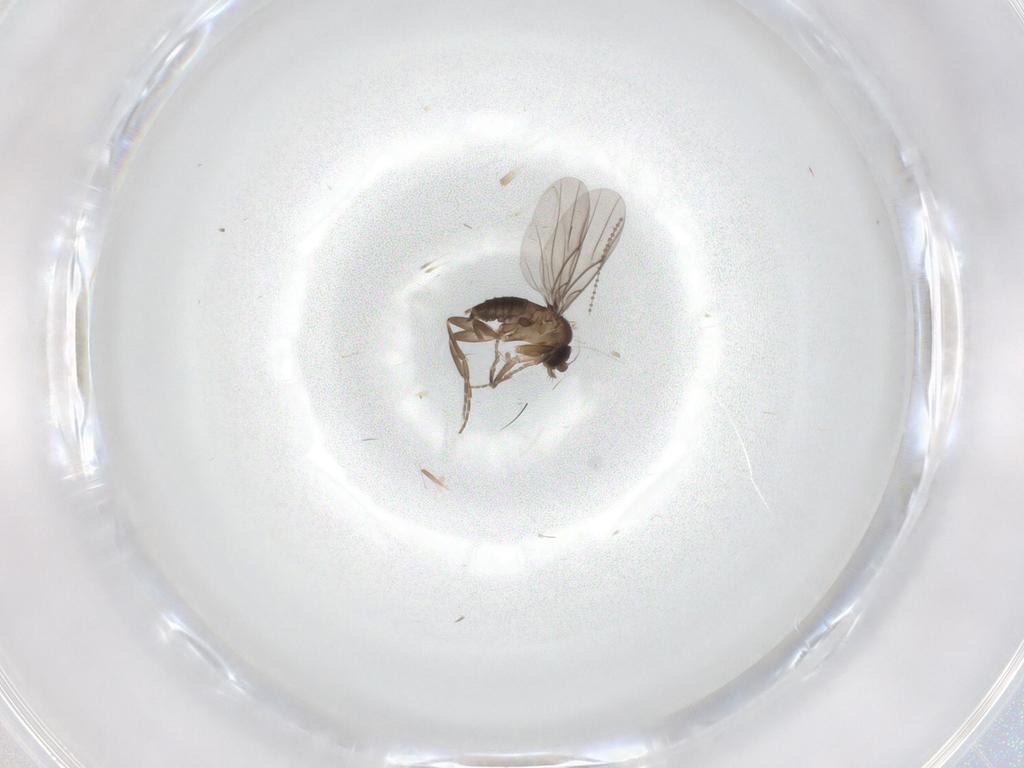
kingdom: Animalia
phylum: Arthropoda
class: Insecta
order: Diptera
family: Cecidomyiidae
